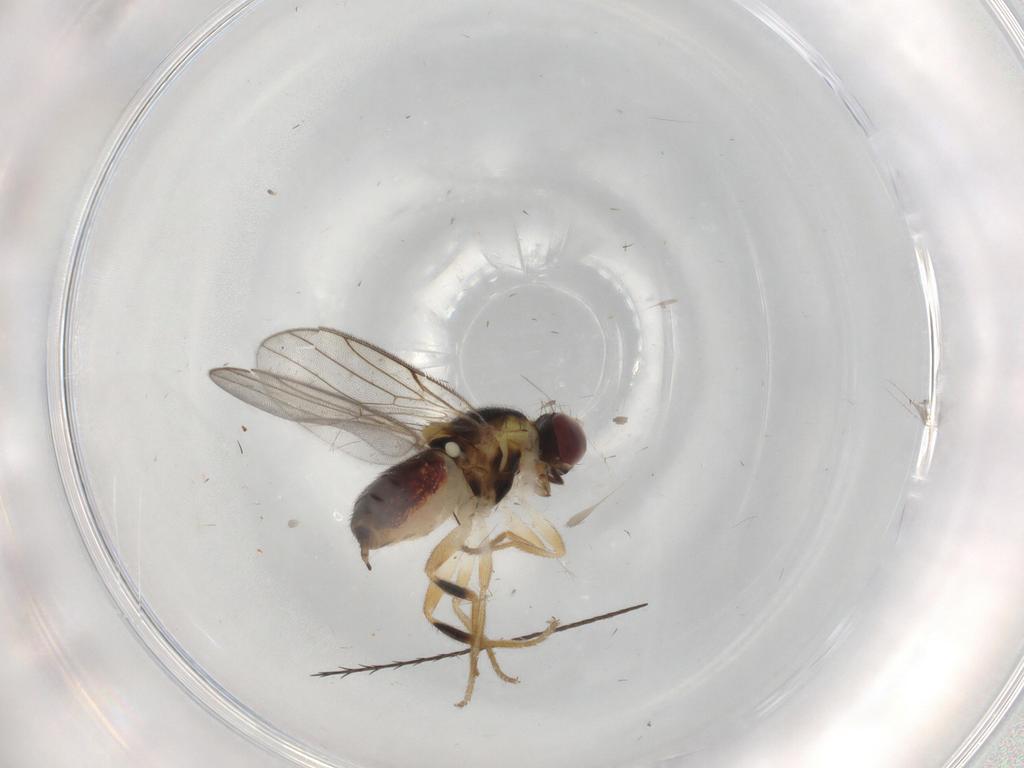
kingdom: Animalia
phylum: Arthropoda
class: Insecta
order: Diptera
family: Chloropidae
